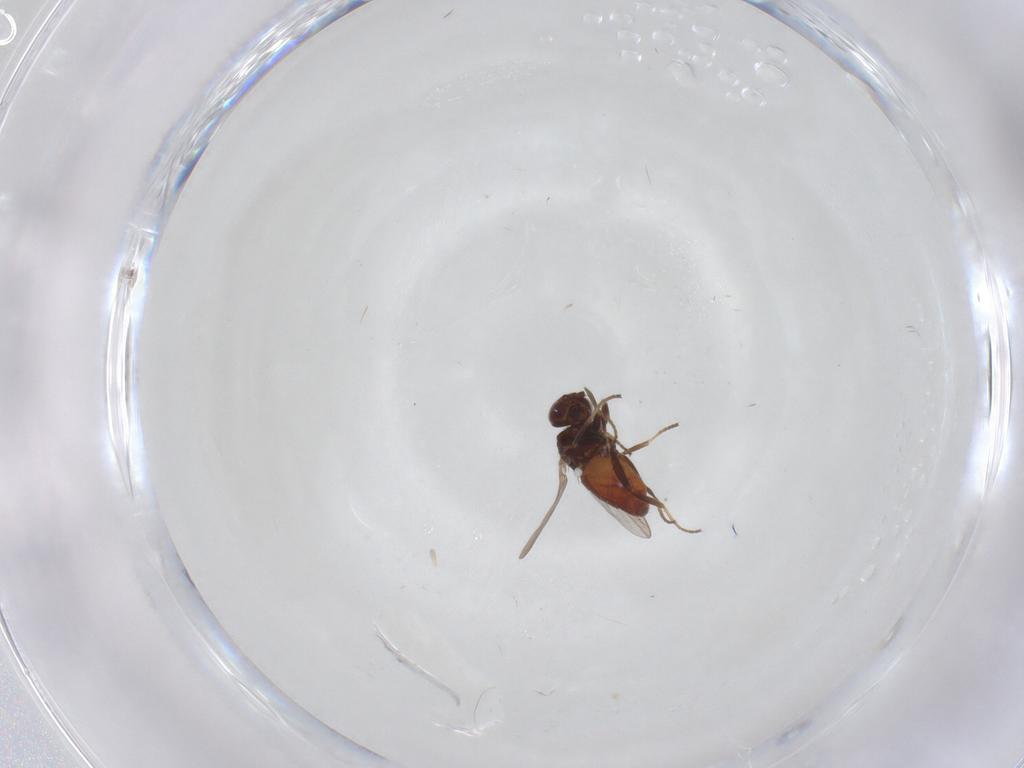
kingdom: Animalia
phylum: Arthropoda
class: Insecta
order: Diptera
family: Chloropidae
